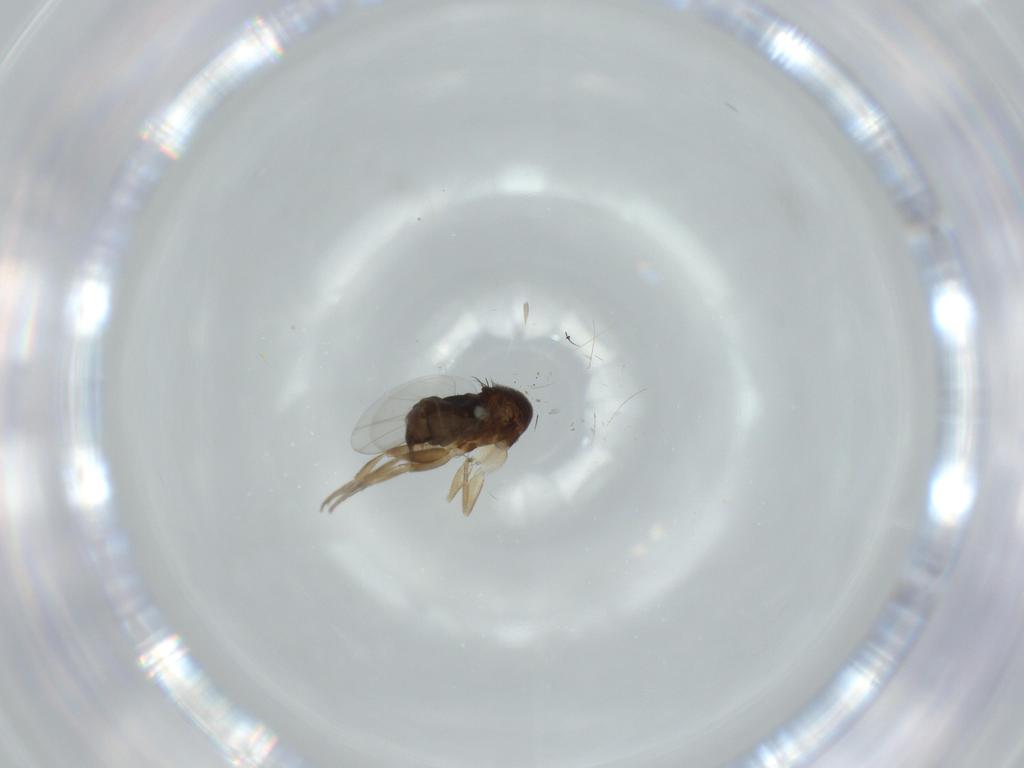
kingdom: Animalia
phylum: Arthropoda
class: Insecta
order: Diptera
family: Phoridae
